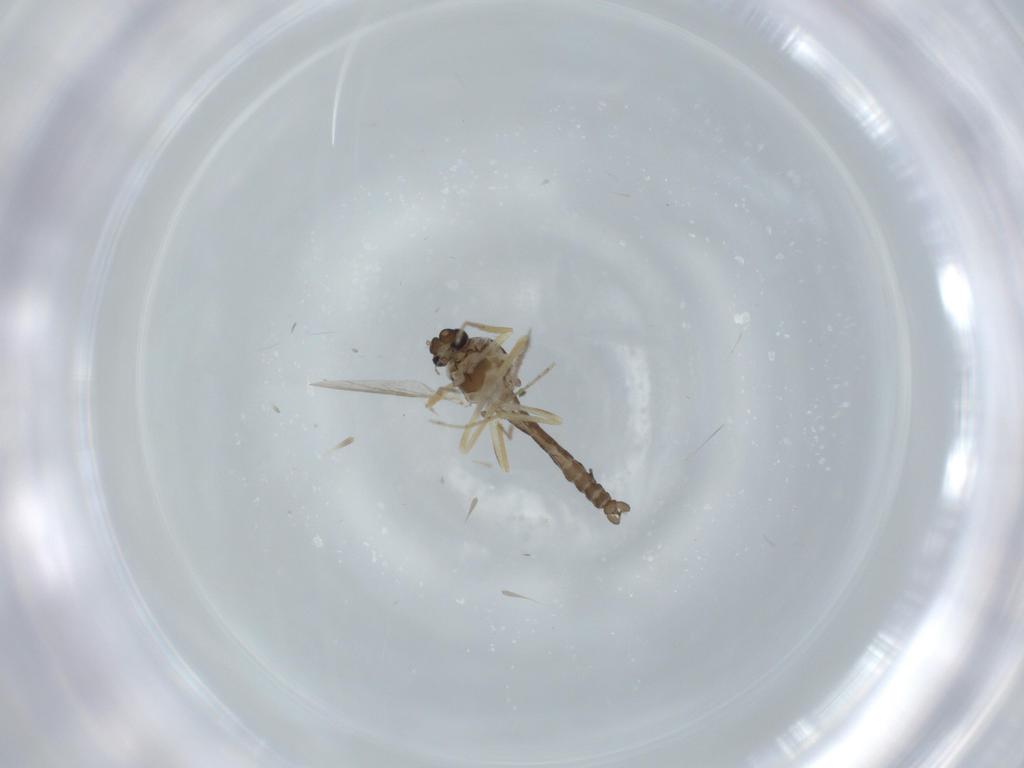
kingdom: Animalia
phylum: Arthropoda
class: Insecta
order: Diptera
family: Ceratopogonidae
